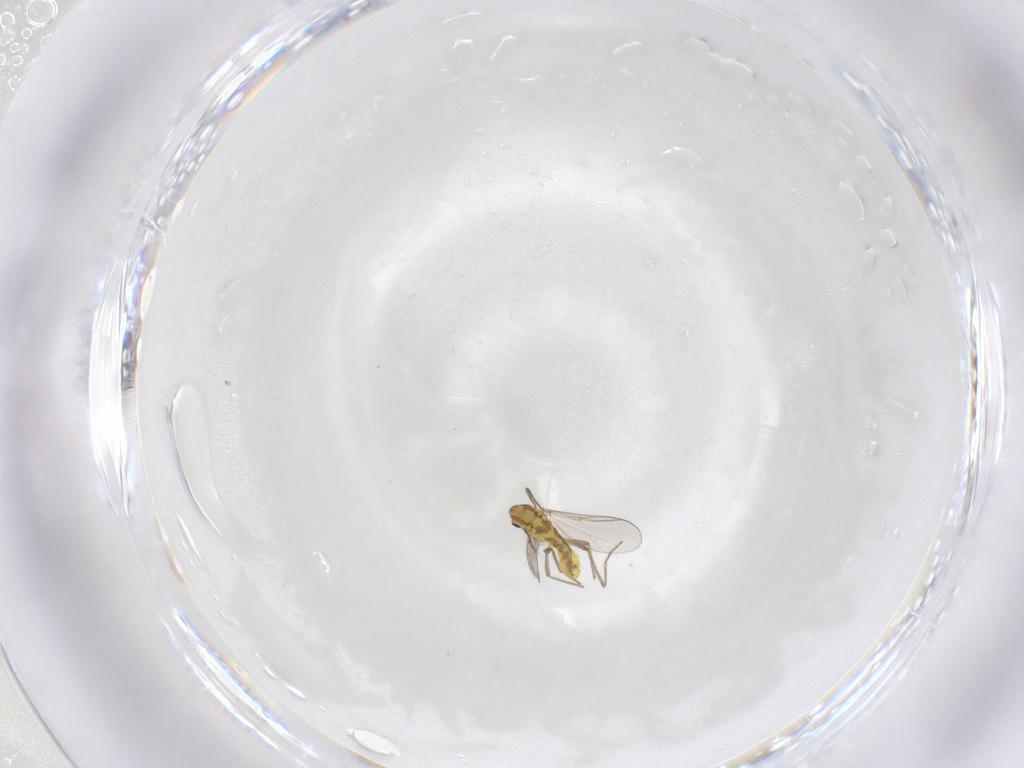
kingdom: Animalia
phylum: Arthropoda
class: Insecta
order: Diptera
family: Chironomidae
